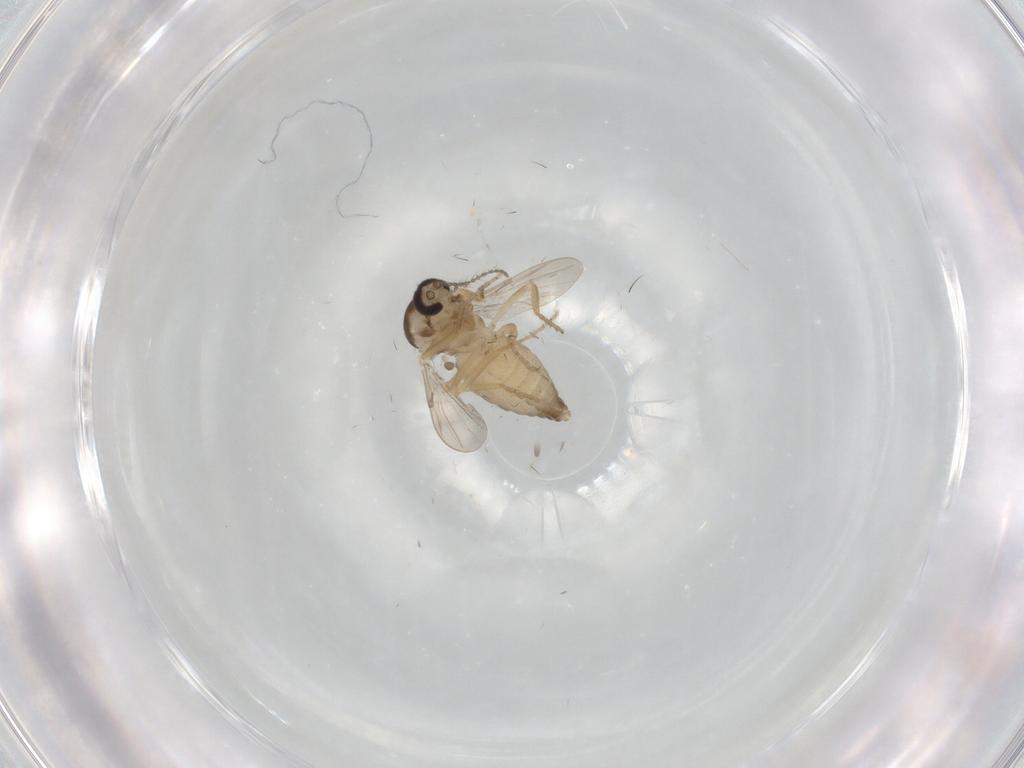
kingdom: Animalia
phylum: Arthropoda
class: Insecta
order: Diptera
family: Ceratopogonidae
